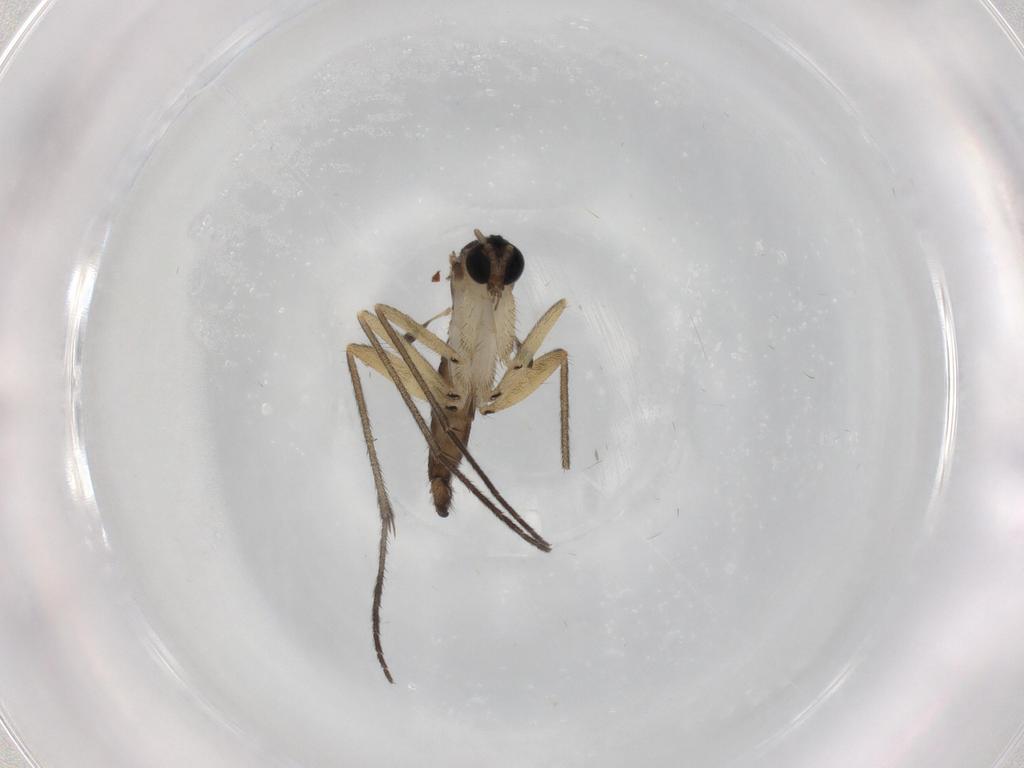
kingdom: Animalia
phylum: Arthropoda
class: Insecta
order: Diptera
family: Sciaridae
